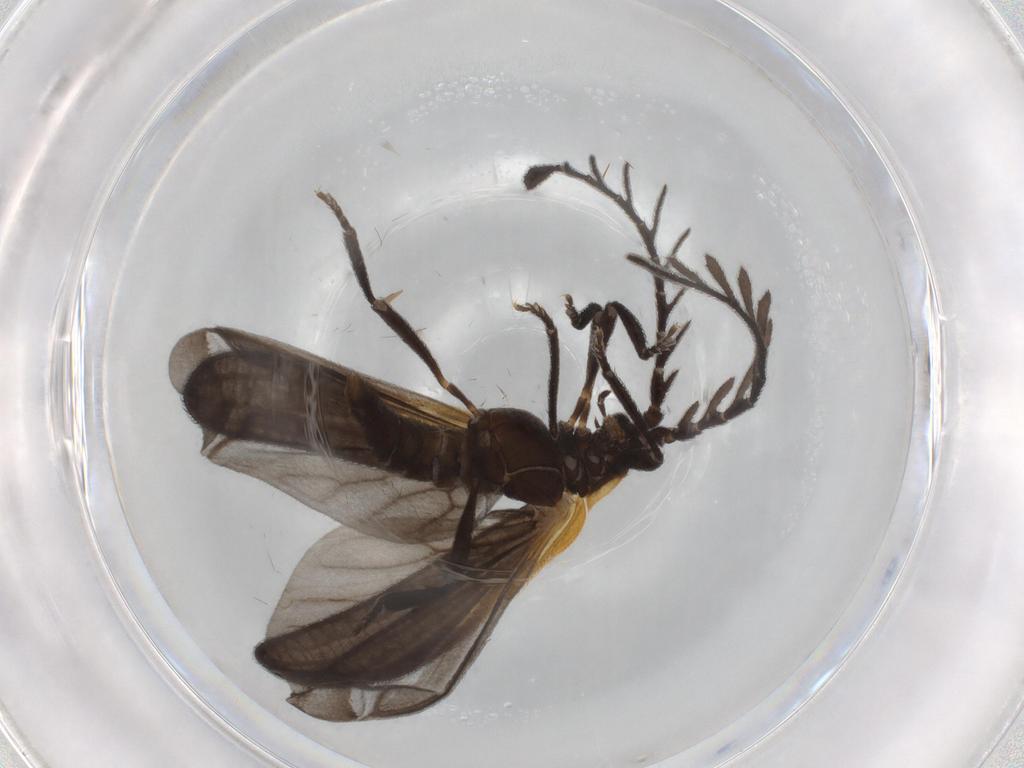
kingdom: Animalia
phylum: Arthropoda
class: Insecta
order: Coleoptera
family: Lycidae
